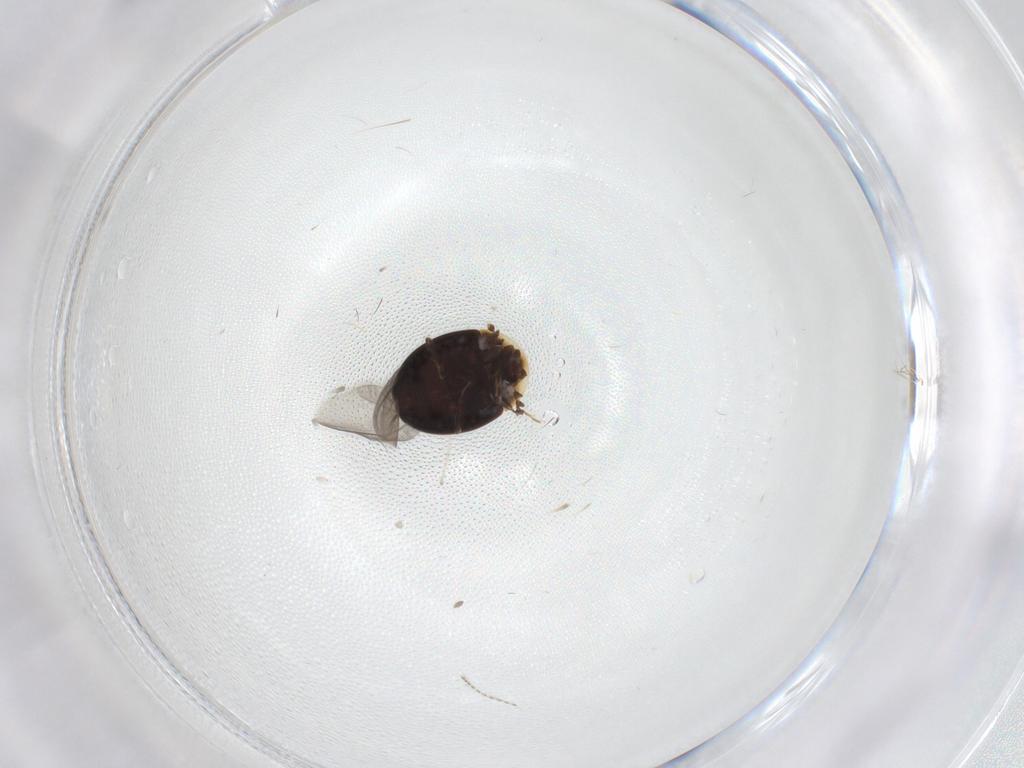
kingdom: Animalia
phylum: Arthropoda
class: Insecta
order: Coleoptera
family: Corylophidae
